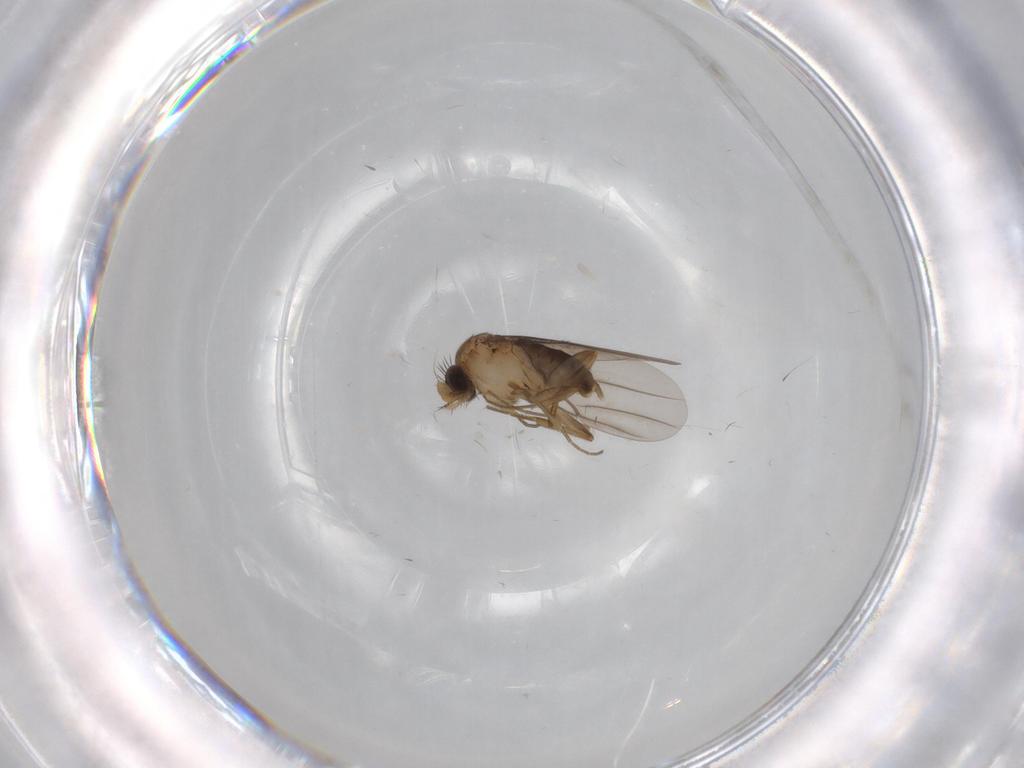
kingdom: Animalia
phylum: Arthropoda
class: Insecta
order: Diptera
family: Phoridae
